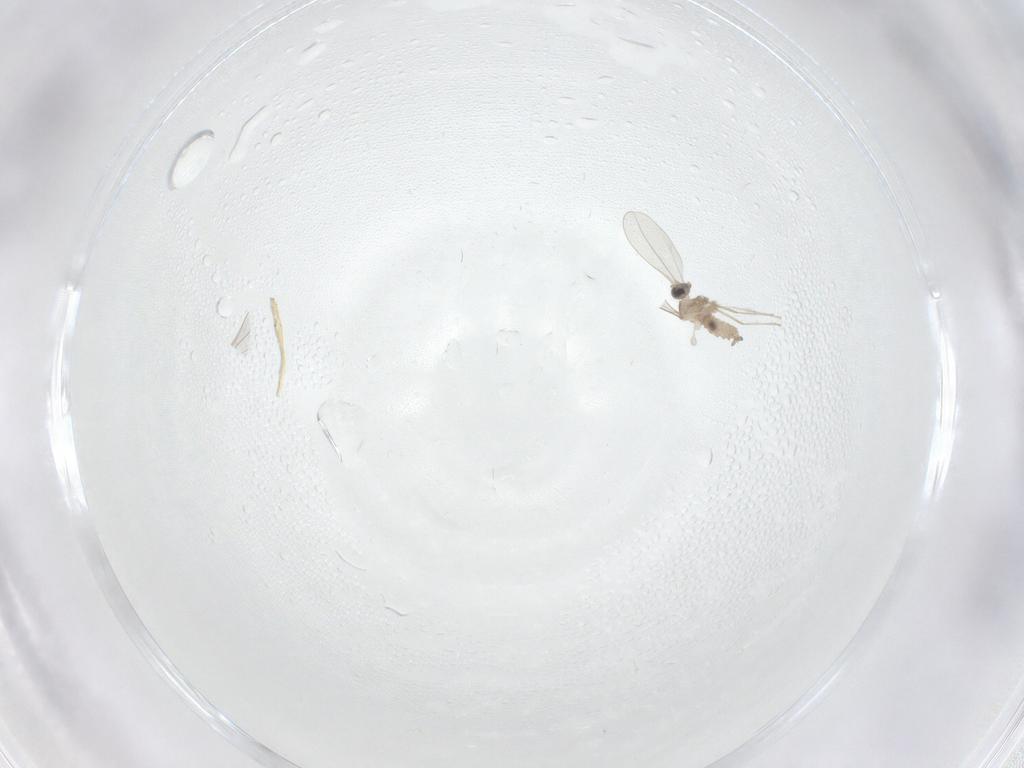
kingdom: Animalia
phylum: Arthropoda
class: Insecta
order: Diptera
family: Cecidomyiidae
